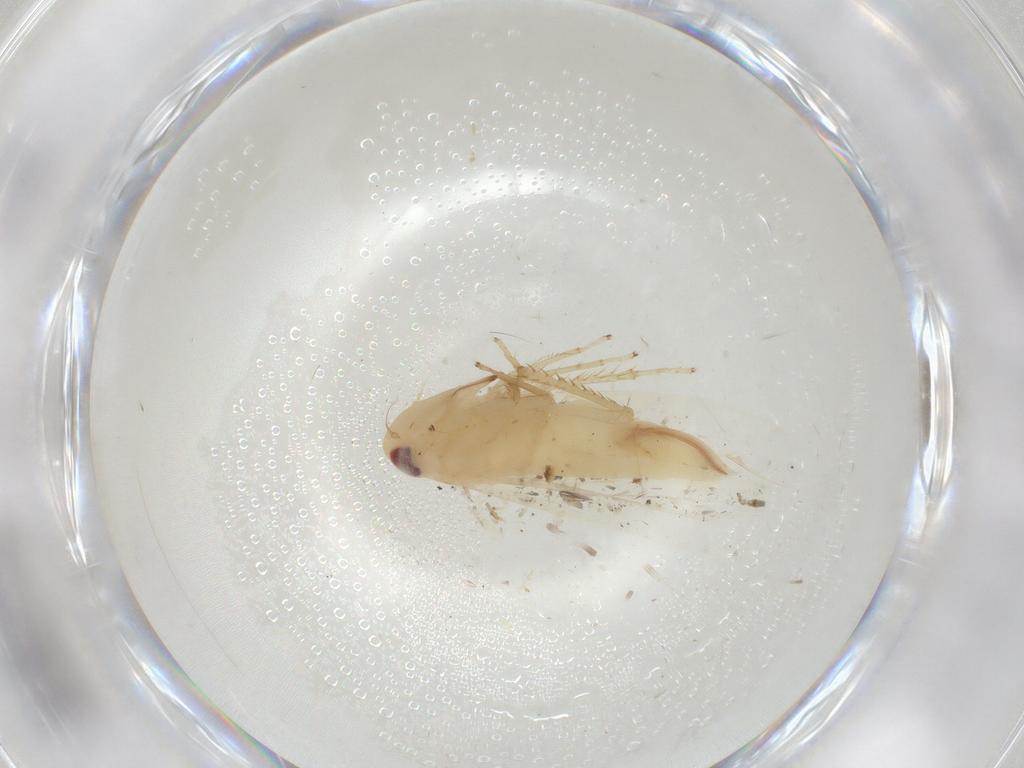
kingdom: Animalia
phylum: Arthropoda
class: Insecta
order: Hemiptera
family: Cicadellidae
